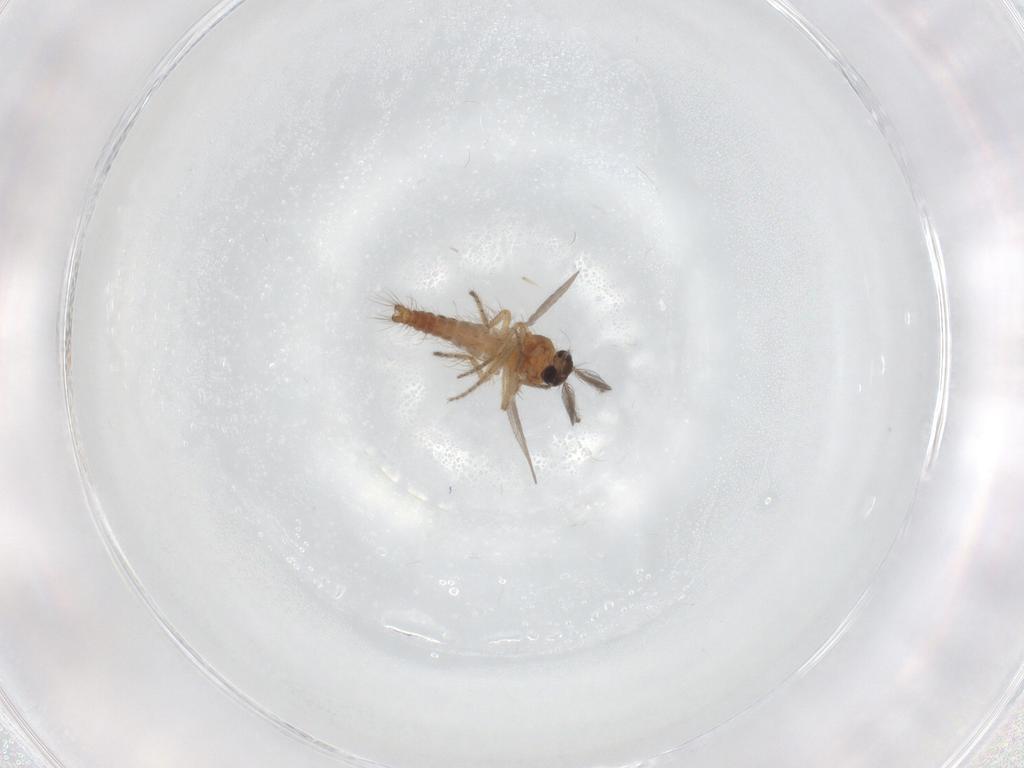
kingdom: Animalia
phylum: Arthropoda
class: Insecta
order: Diptera
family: Ceratopogonidae
